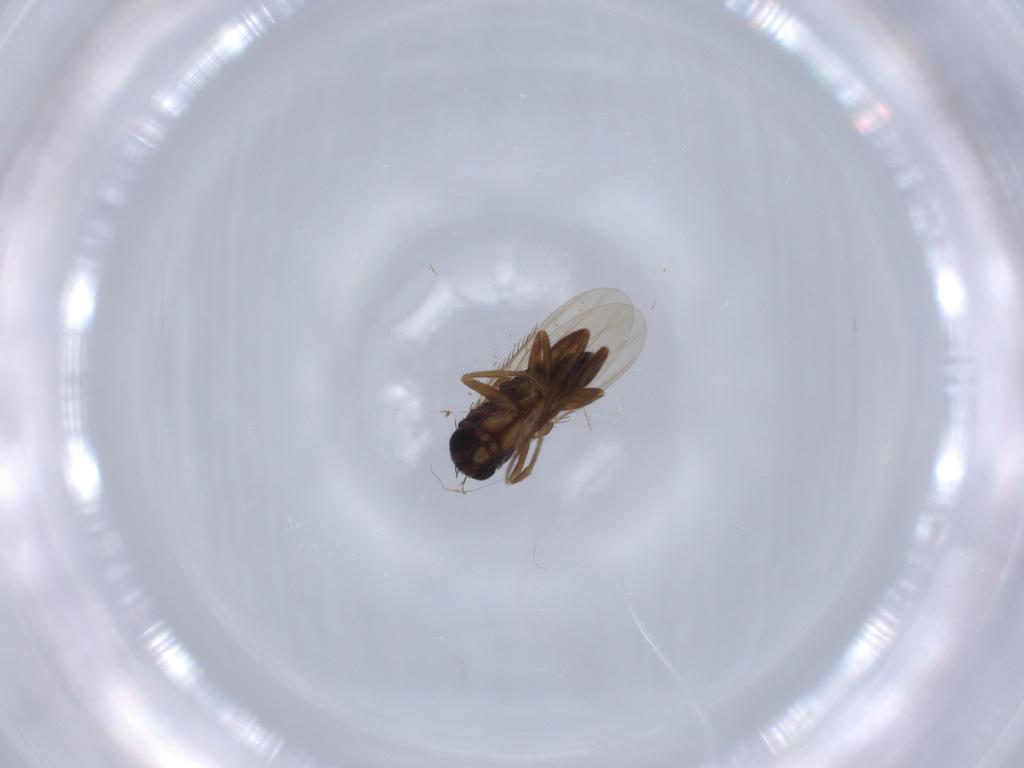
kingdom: Animalia
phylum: Arthropoda
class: Insecta
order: Diptera
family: Phoridae
